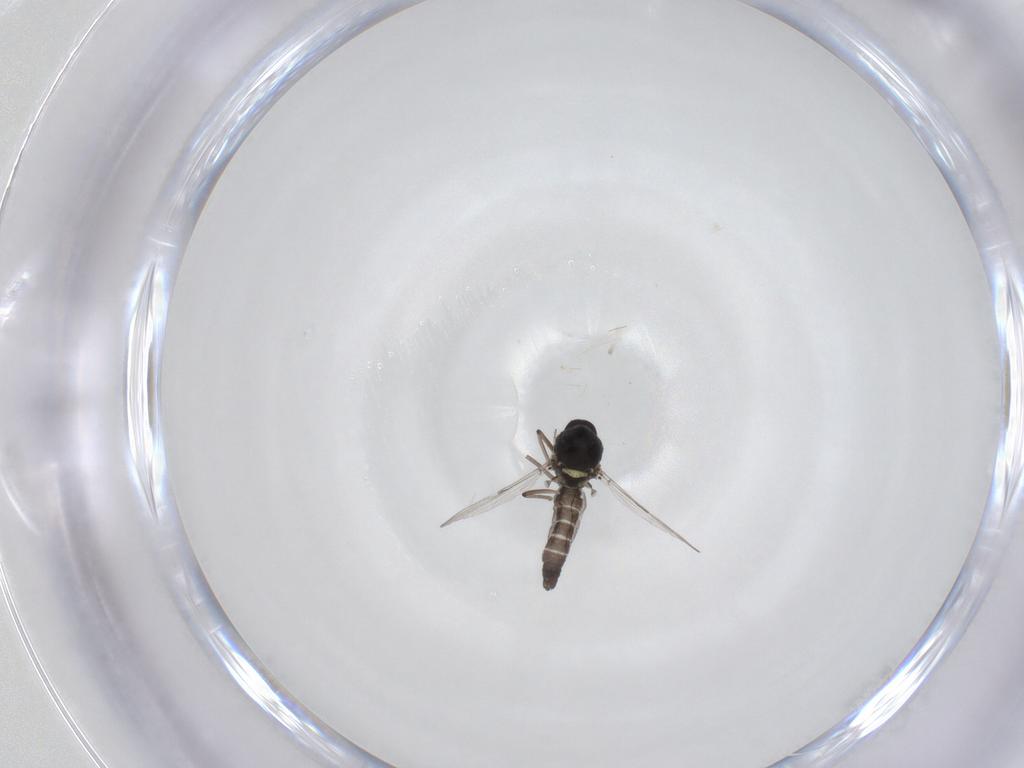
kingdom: Animalia
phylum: Arthropoda
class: Insecta
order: Diptera
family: Ceratopogonidae
